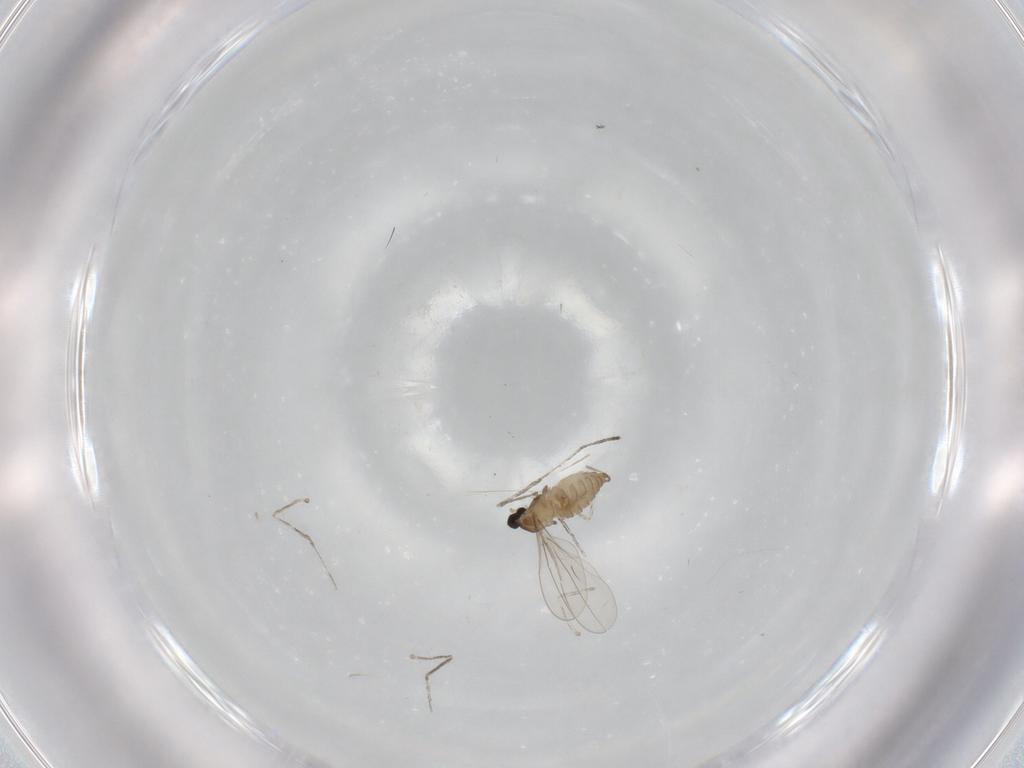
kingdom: Animalia
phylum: Arthropoda
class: Insecta
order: Diptera
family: Cecidomyiidae
